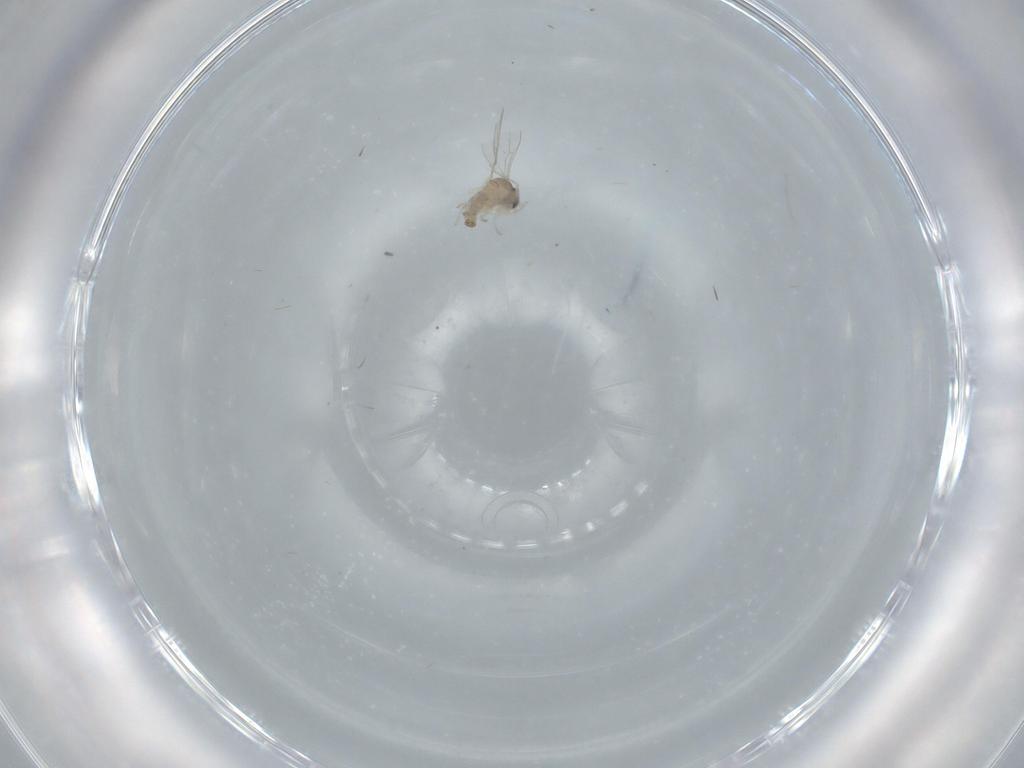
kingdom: Animalia
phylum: Arthropoda
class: Insecta
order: Diptera
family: Cecidomyiidae
